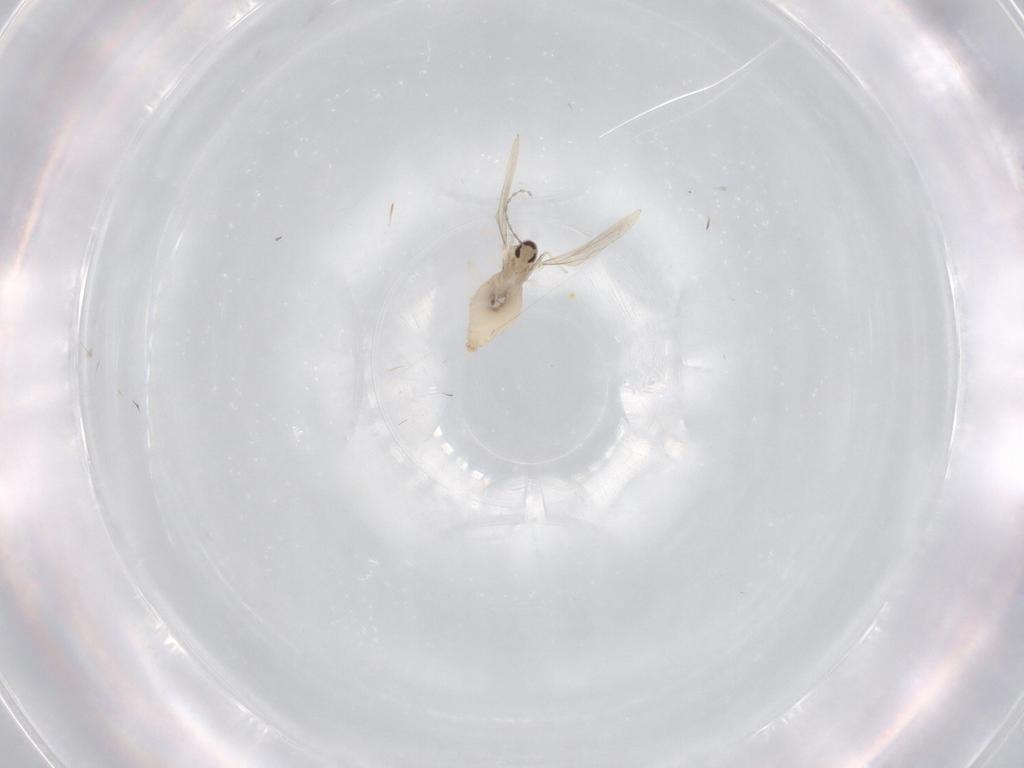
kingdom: Animalia
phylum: Arthropoda
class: Insecta
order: Diptera
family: Cecidomyiidae
